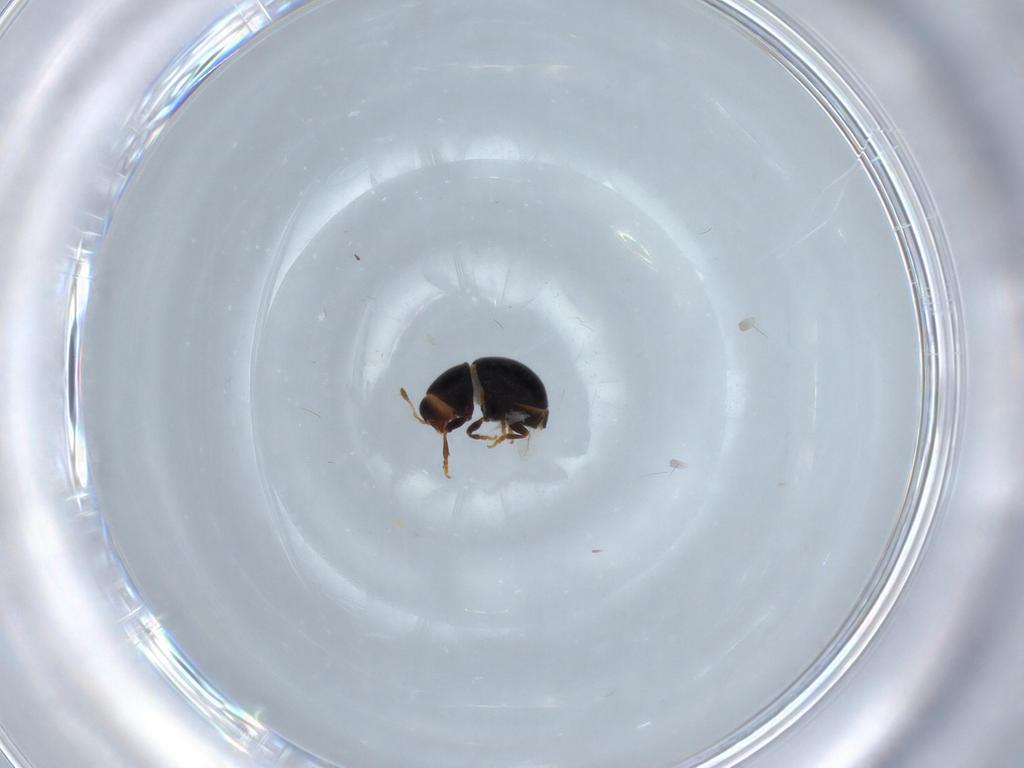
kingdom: Animalia
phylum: Arthropoda
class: Insecta
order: Coleoptera
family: Anthribidae
